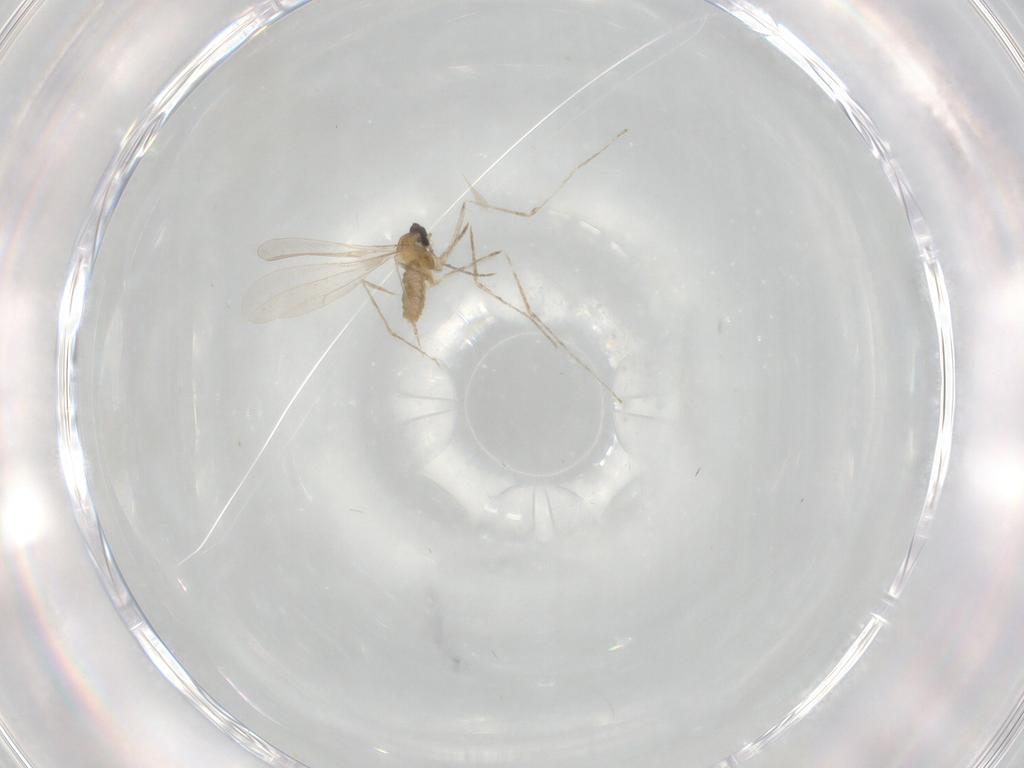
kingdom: Animalia
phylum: Arthropoda
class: Insecta
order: Diptera
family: Cecidomyiidae
